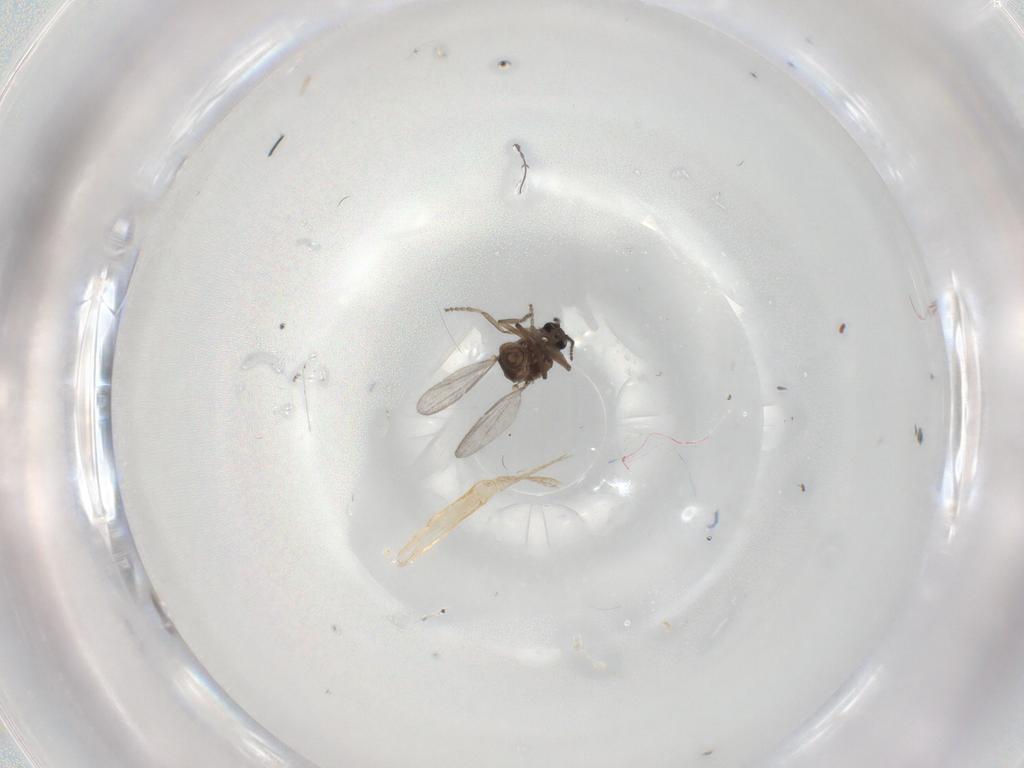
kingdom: Animalia
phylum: Arthropoda
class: Insecta
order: Diptera
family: Ceratopogonidae
